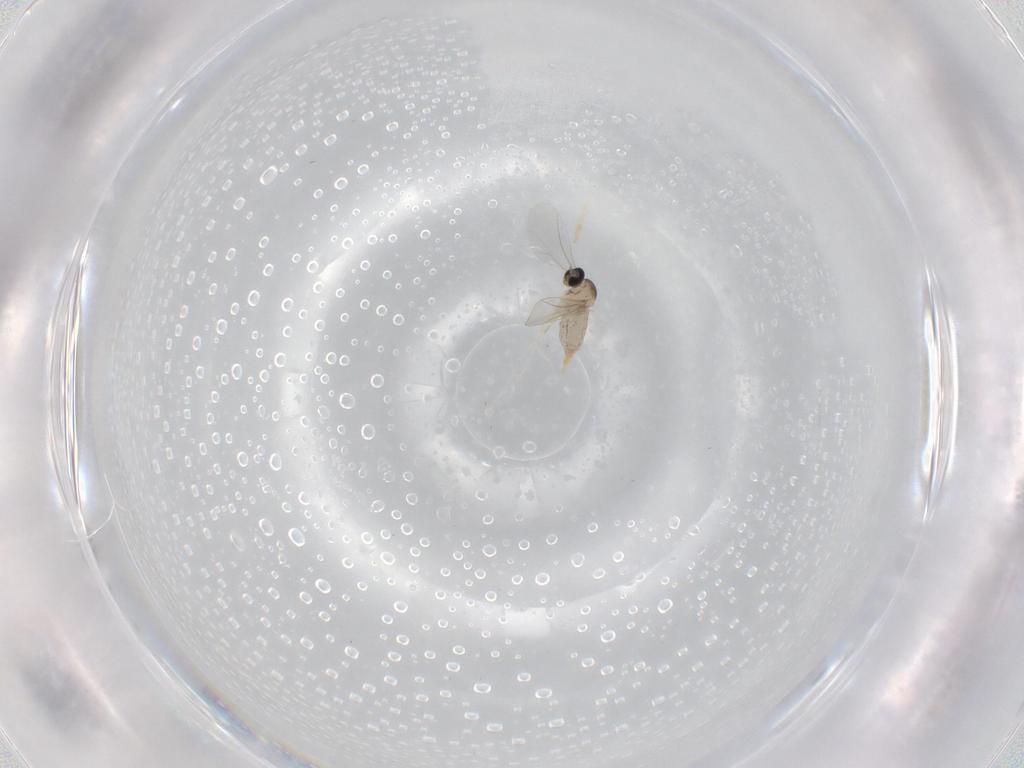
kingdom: Animalia
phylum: Arthropoda
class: Insecta
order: Diptera
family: Cecidomyiidae
